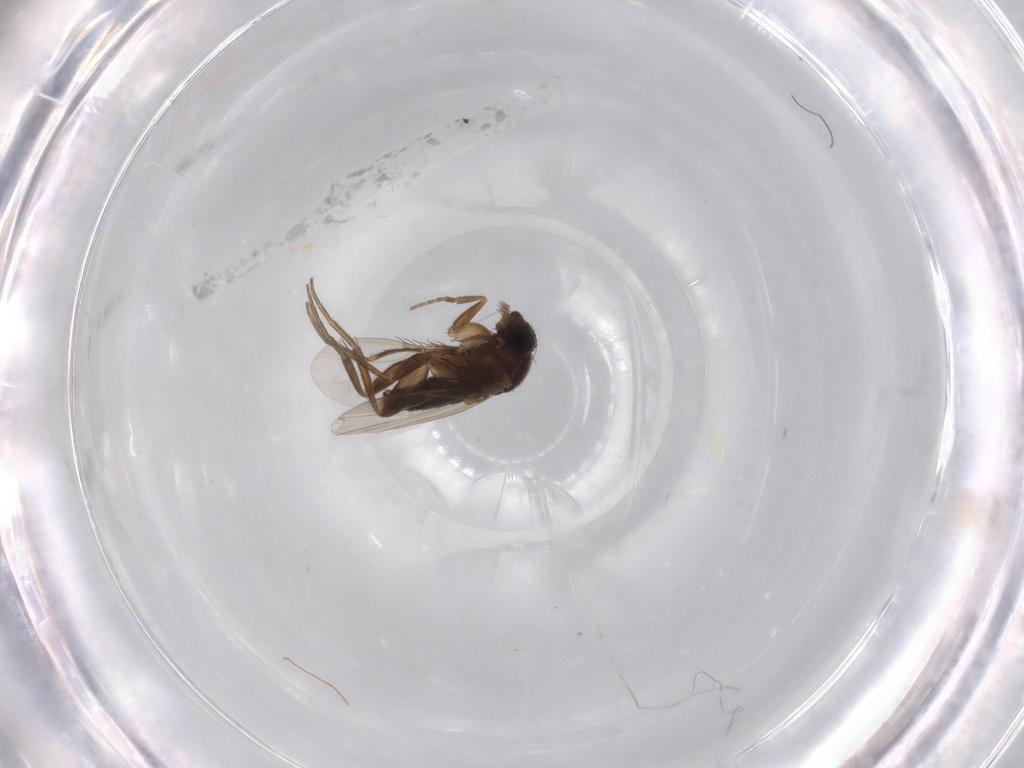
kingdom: Animalia
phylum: Arthropoda
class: Insecta
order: Diptera
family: Phoridae
